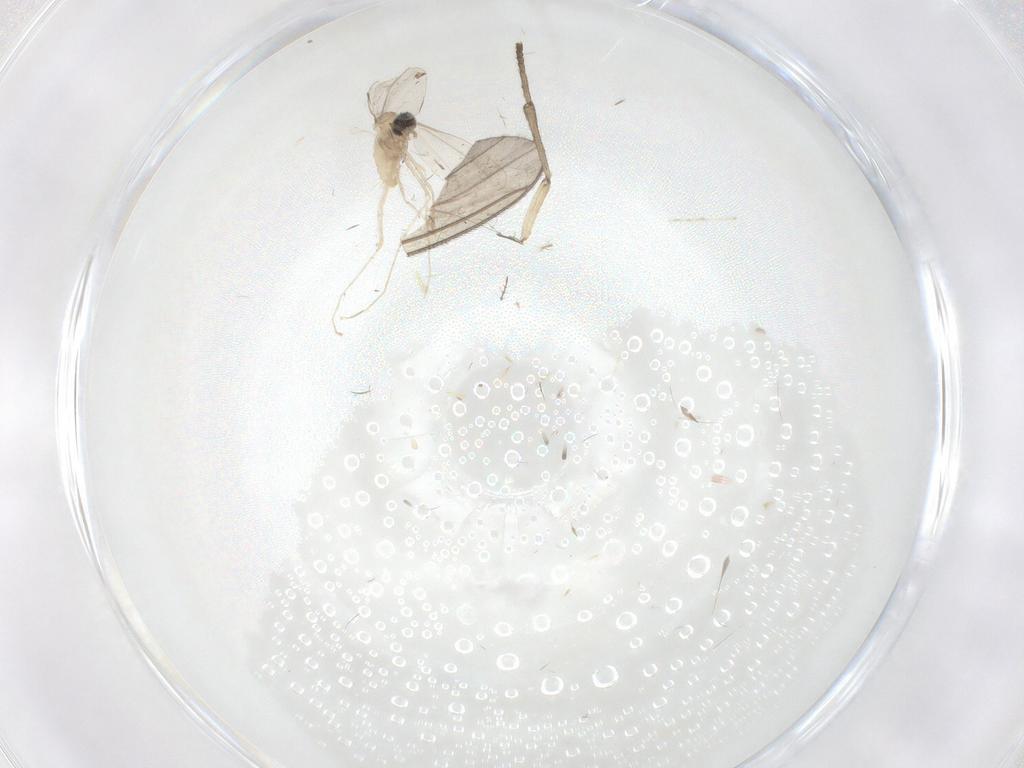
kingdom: Animalia
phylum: Arthropoda
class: Insecta
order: Diptera
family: Sciaridae
